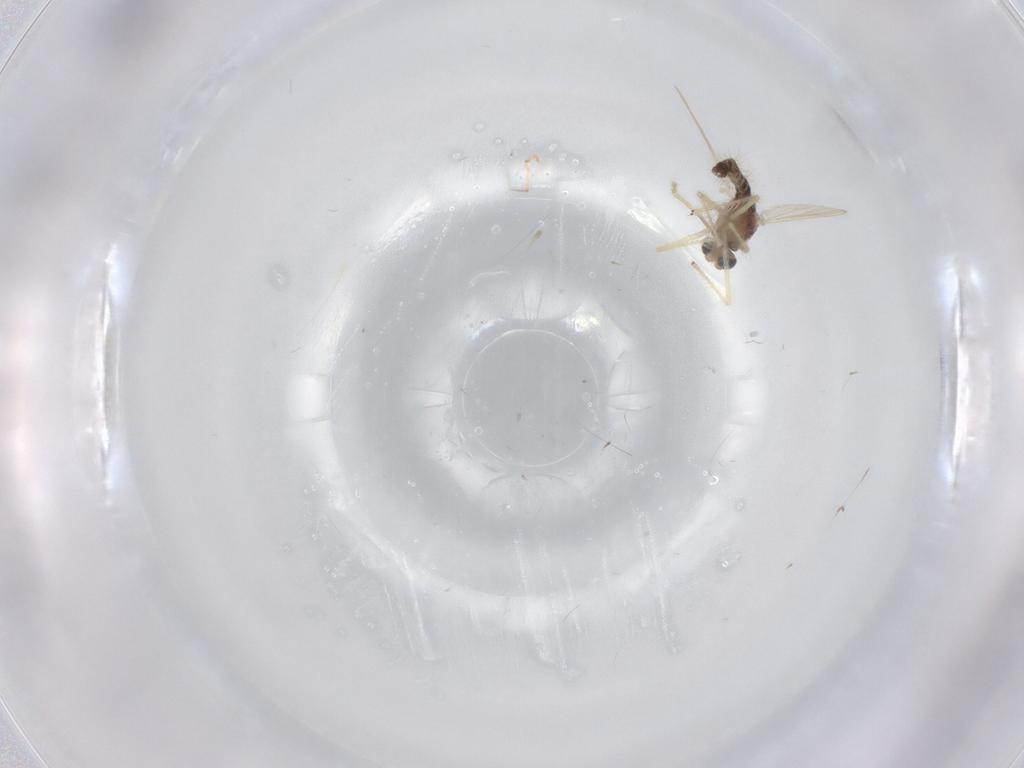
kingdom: Animalia
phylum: Arthropoda
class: Insecta
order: Diptera
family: Chironomidae
